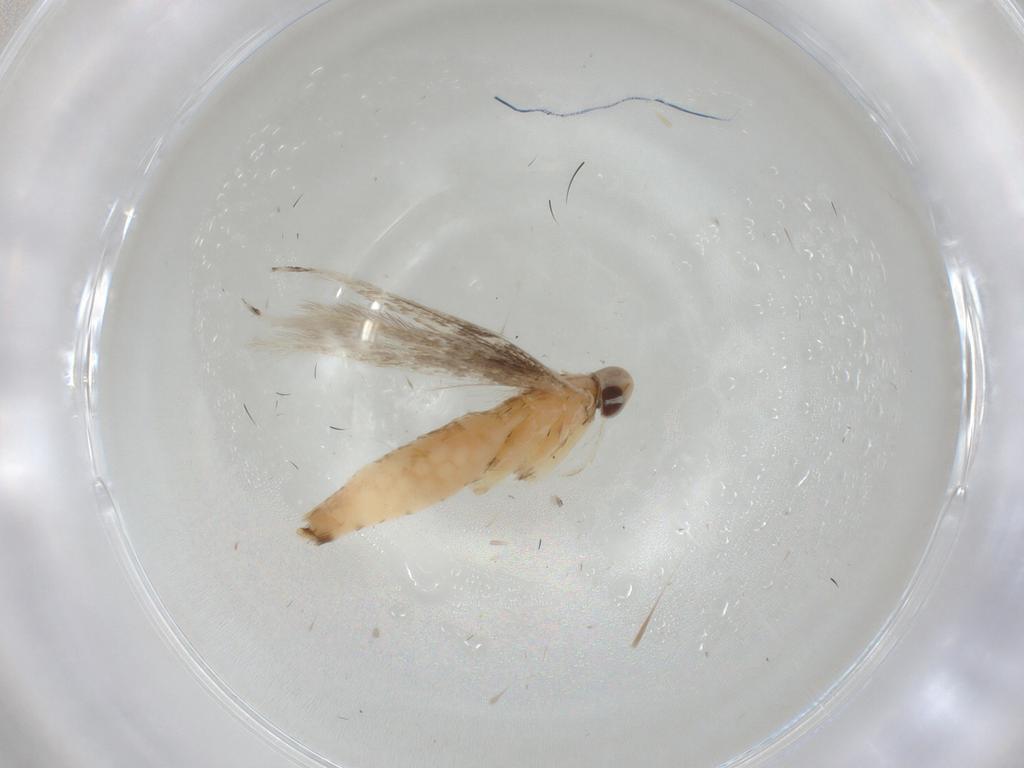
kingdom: Animalia
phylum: Arthropoda
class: Insecta
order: Lepidoptera
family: Crambidae
